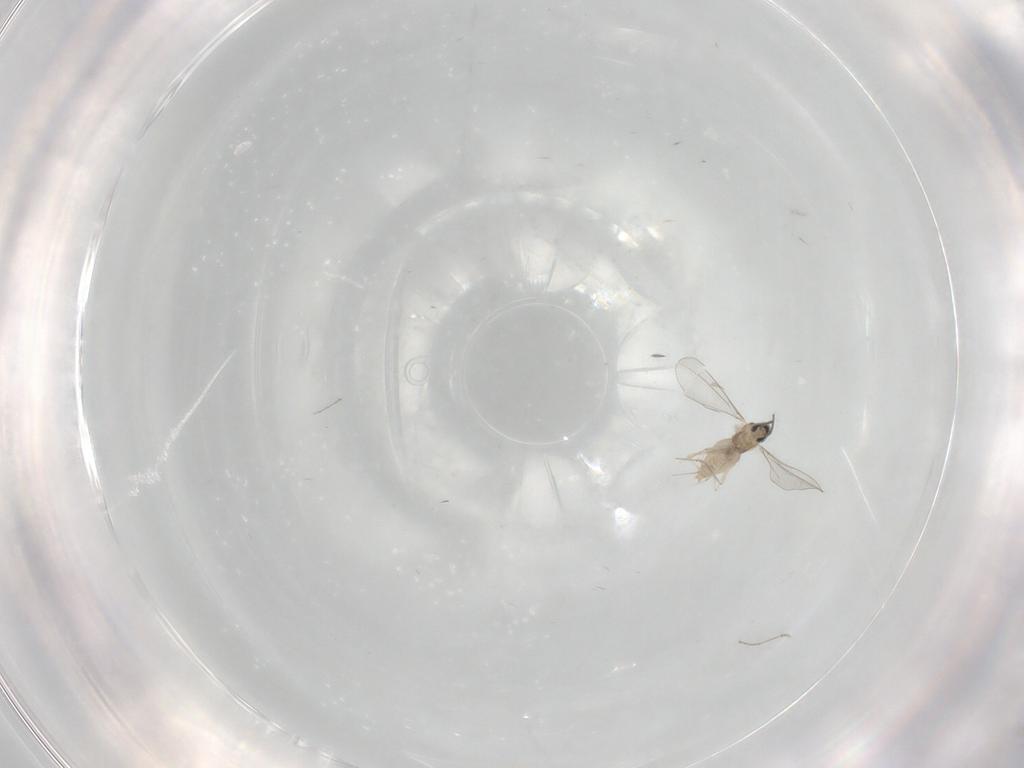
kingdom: Animalia
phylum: Arthropoda
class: Insecta
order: Diptera
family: Cecidomyiidae
